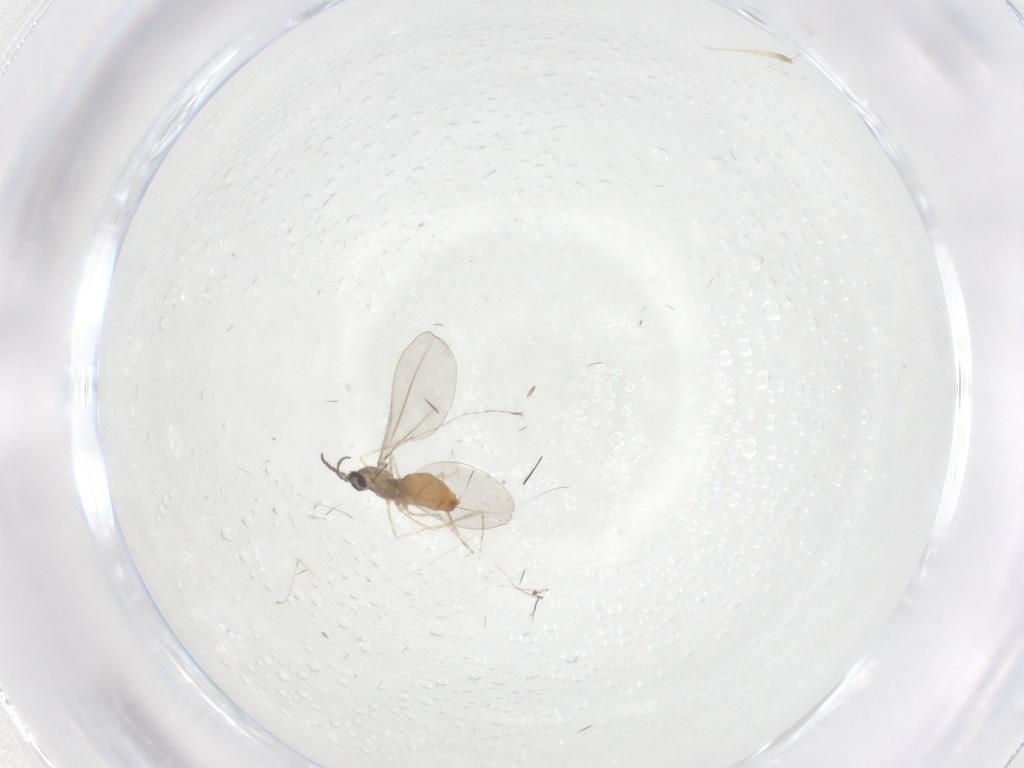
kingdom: Animalia
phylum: Arthropoda
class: Insecta
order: Diptera
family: Cecidomyiidae
